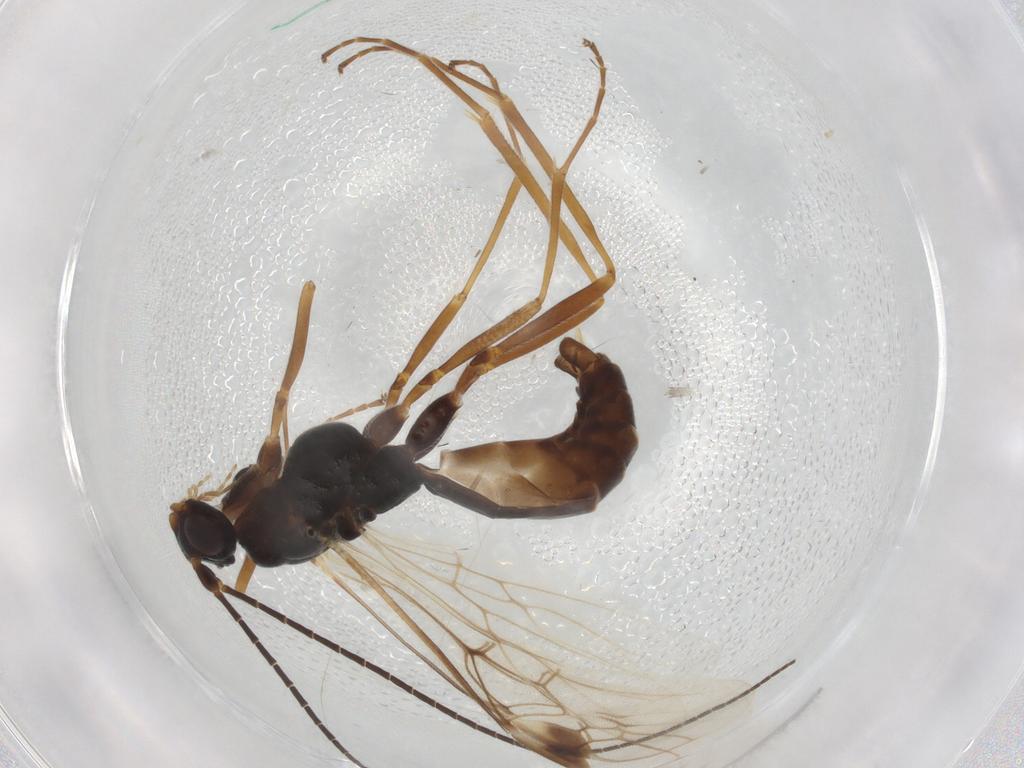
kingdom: Animalia
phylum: Arthropoda
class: Insecta
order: Hymenoptera
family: Braconidae
